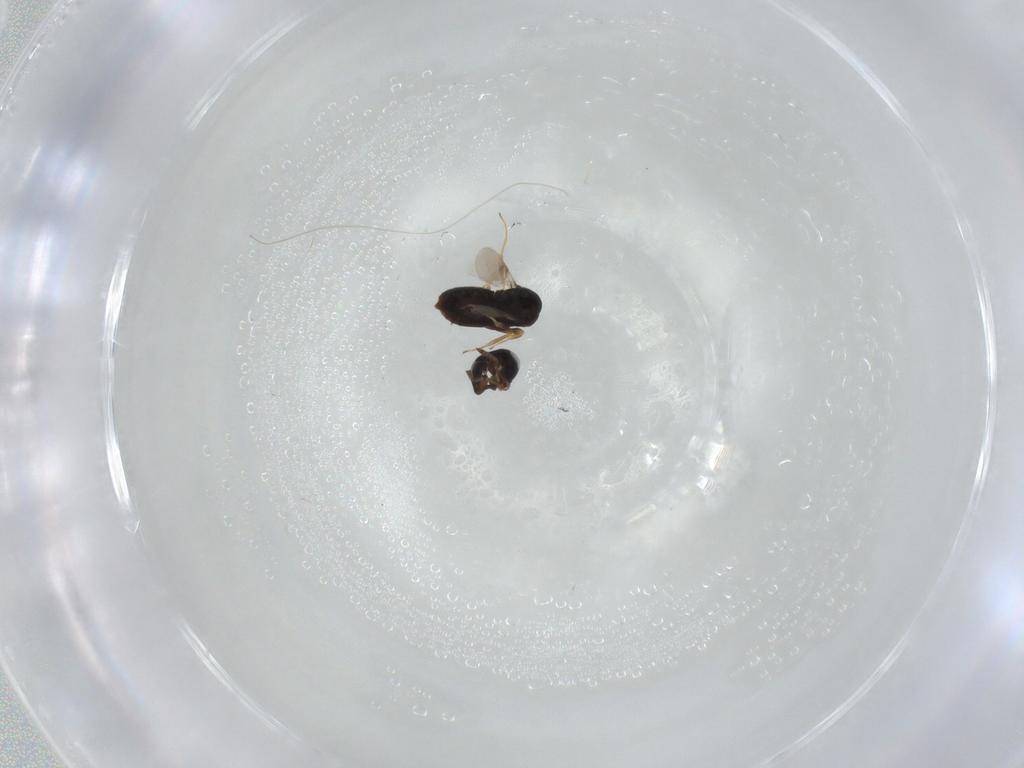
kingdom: Animalia
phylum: Arthropoda
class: Insecta
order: Hymenoptera
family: Scelionidae
